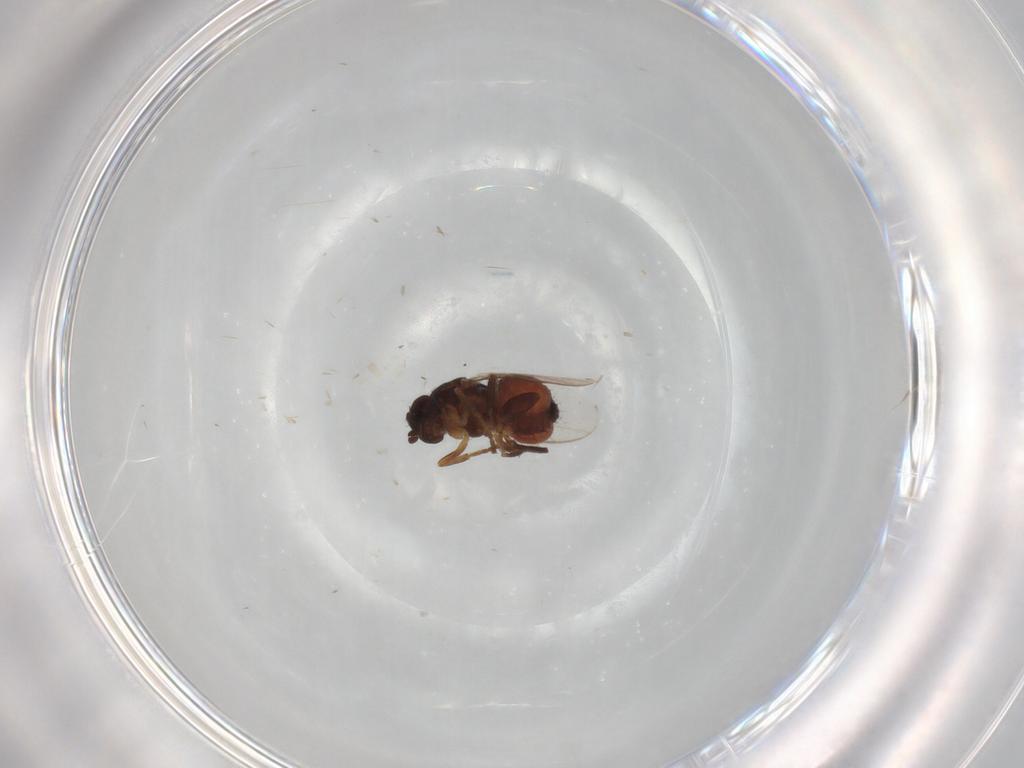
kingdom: Animalia
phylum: Arthropoda
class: Insecta
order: Diptera
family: Sphaeroceridae
